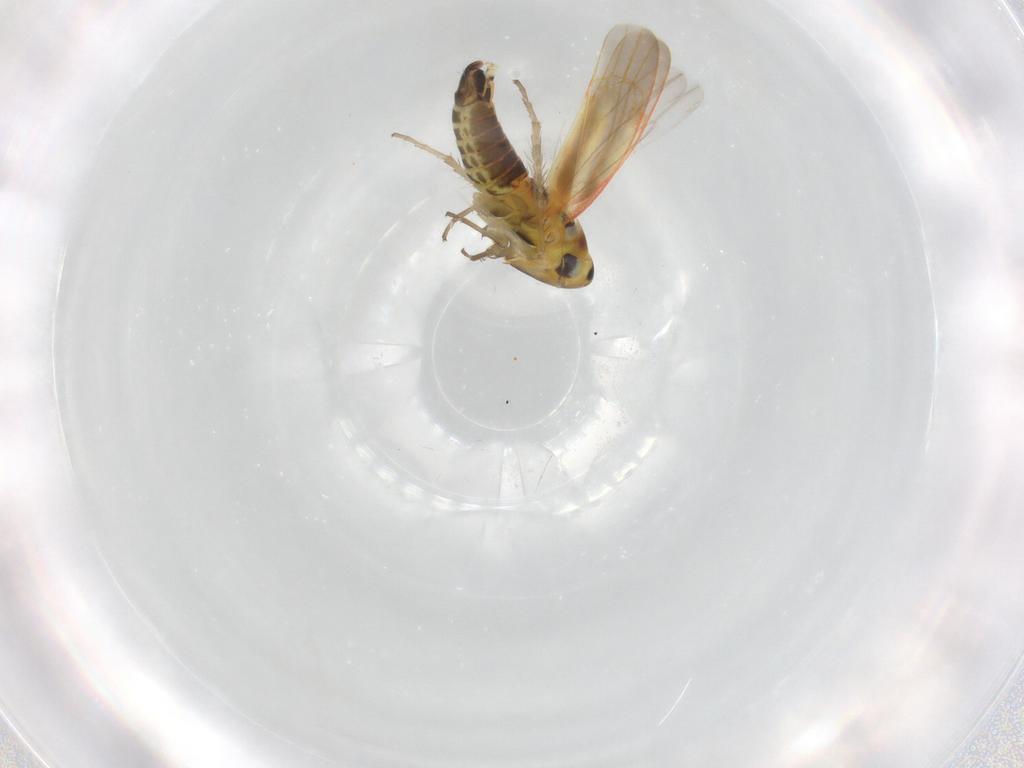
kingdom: Animalia
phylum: Arthropoda
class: Insecta
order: Hemiptera
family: Cicadellidae
